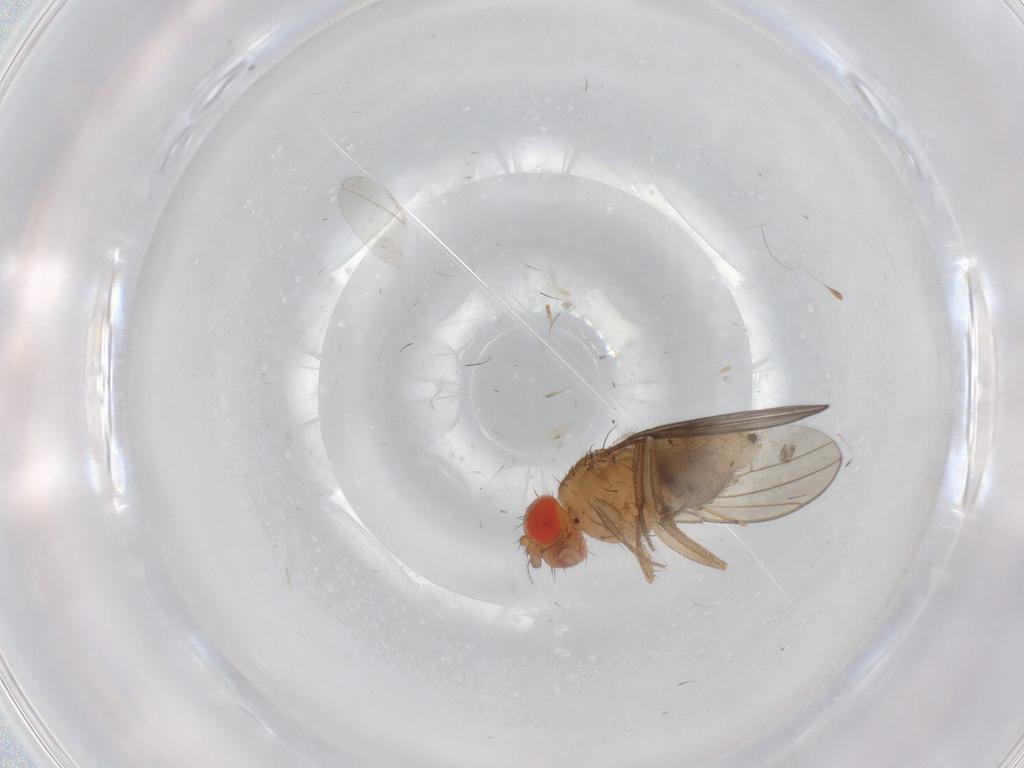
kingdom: Animalia
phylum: Arthropoda
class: Insecta
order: Diptera
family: Drosophilidae
